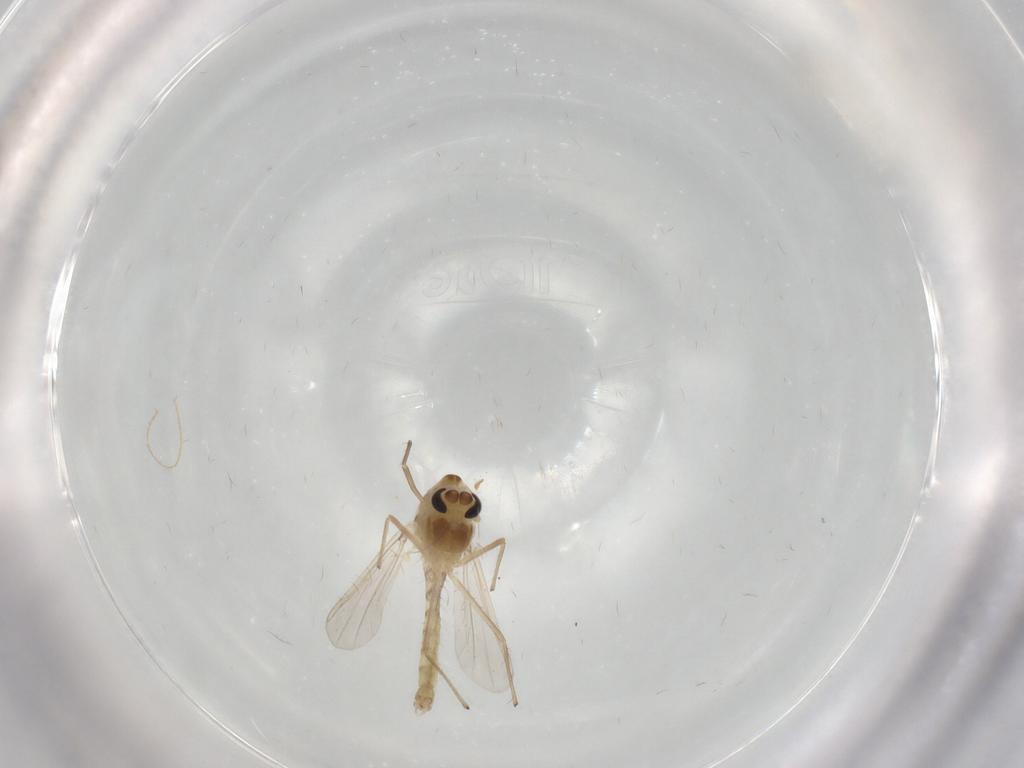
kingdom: Animalia
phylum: Arthropoda
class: Insecta
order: Diptera
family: Chironomidae
